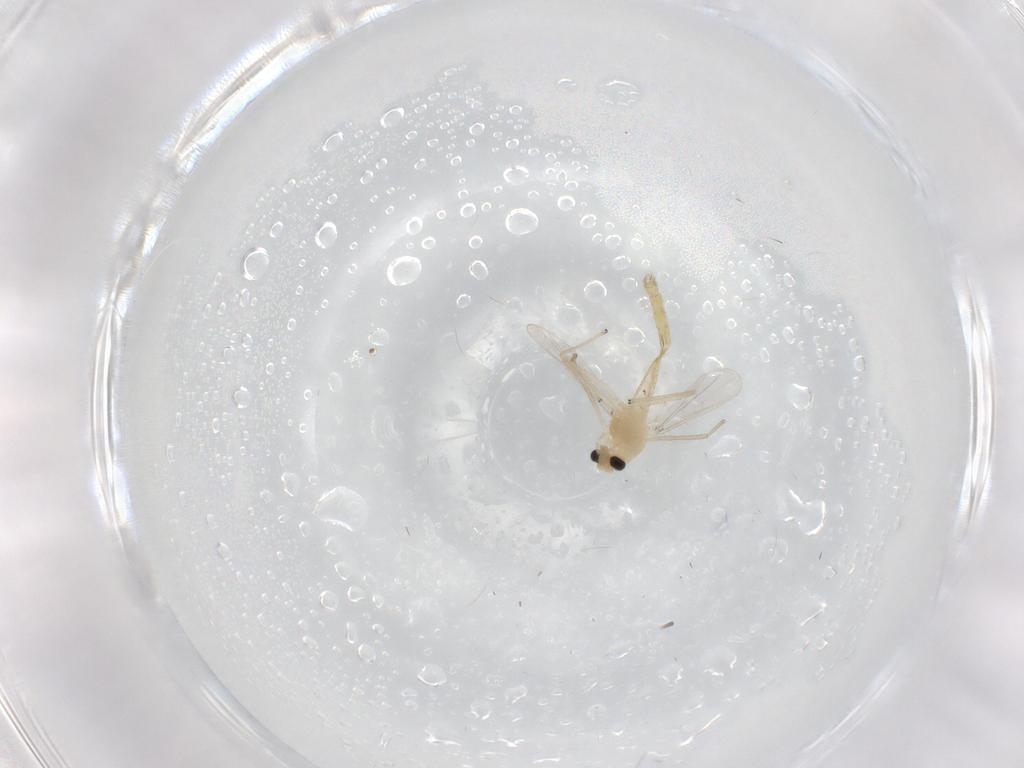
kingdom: Animalia
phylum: Arthropoda
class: Insecta
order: Diptera
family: Chironomidae
